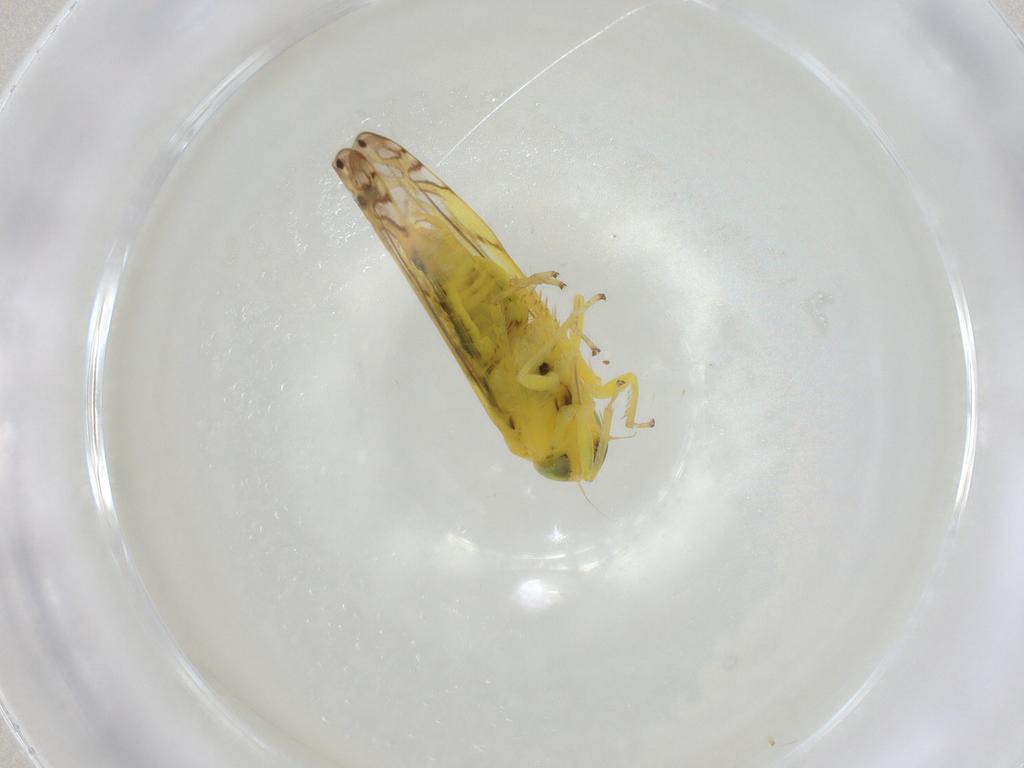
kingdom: Animalia
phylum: Arthropoda
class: Insecta
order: Hemiptera
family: Cicadellidae
